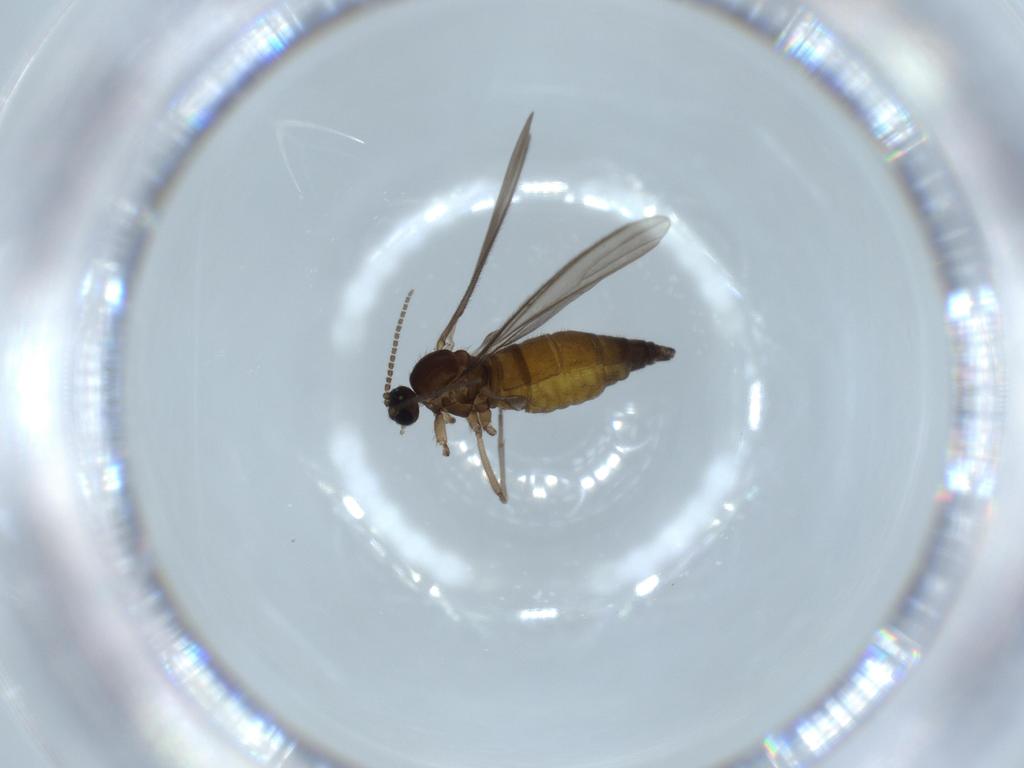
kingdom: Animalia
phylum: Arthropoda
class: Insecta
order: Diptera
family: Sciaridae
